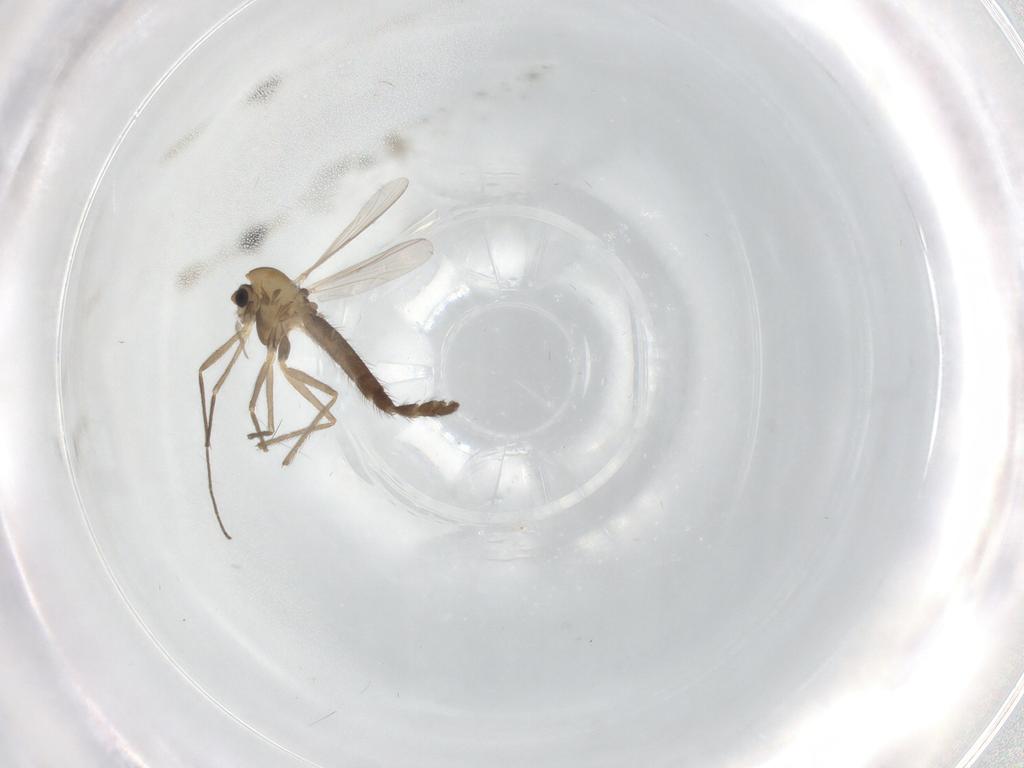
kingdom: Animalia
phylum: Arthropoda
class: Insecta
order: Diptera
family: Chironomidae
